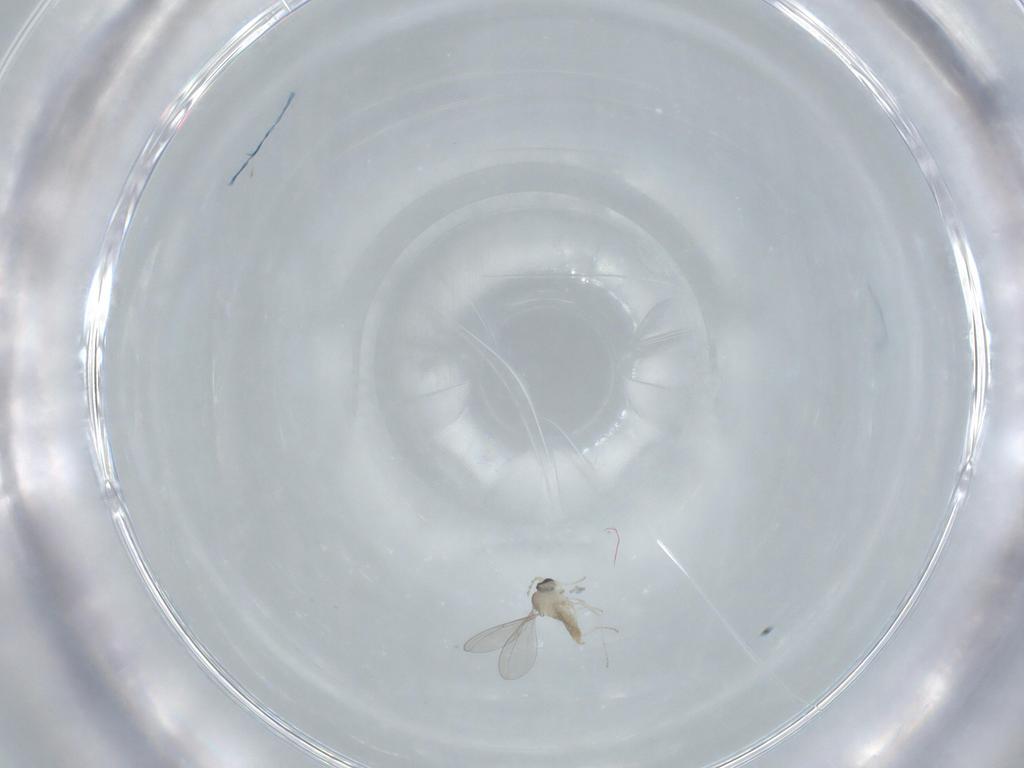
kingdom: Animalia
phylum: Arthropoda
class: Insecta
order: Diptera
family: Cecidomyiidae
